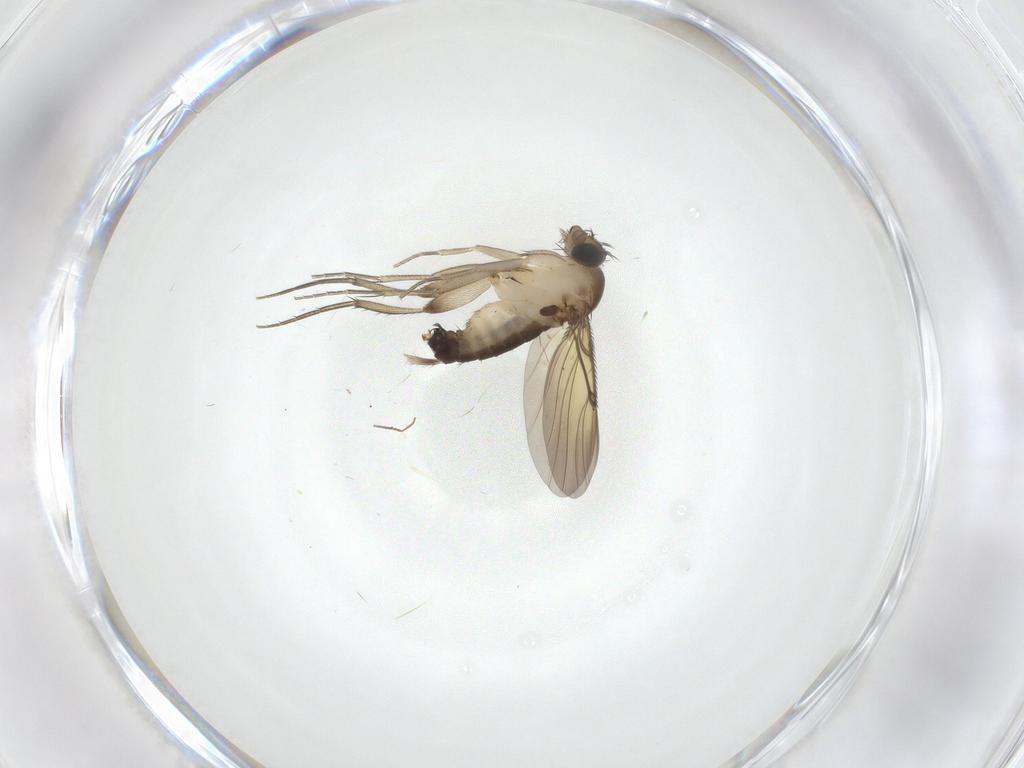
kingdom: Animalia
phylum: Arthropoda
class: Insecta
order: Diptera
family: Phoridae
